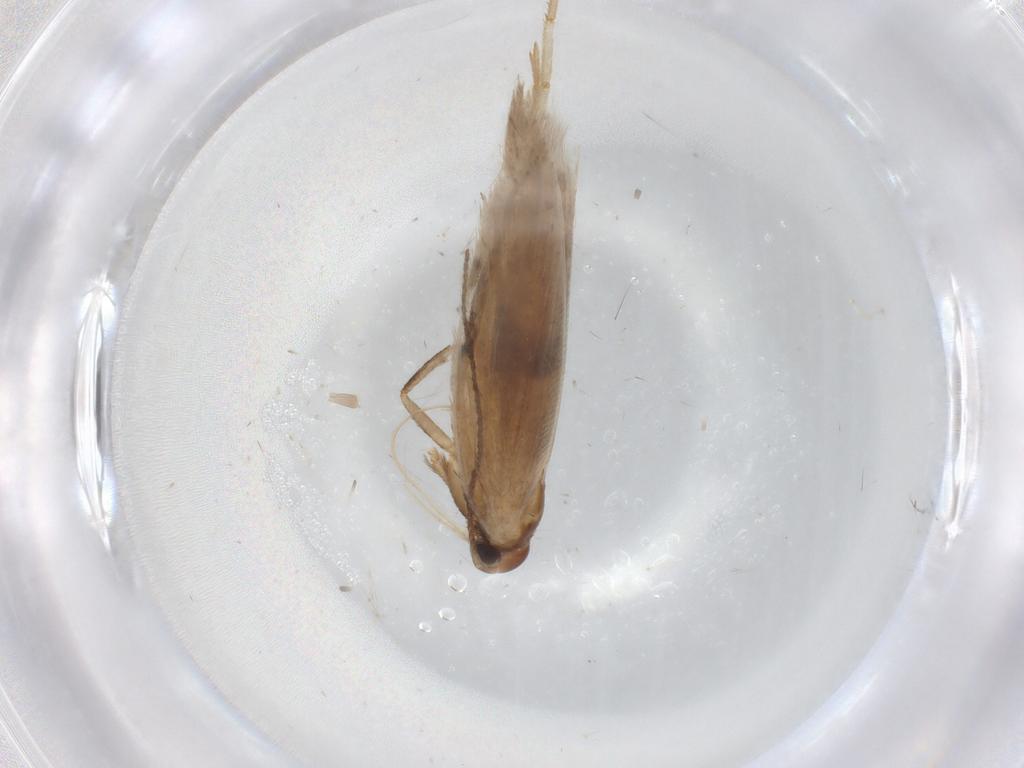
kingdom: Animalia
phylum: Arthropoda
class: Insecta
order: Lepidoptera
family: Gelechiidae
